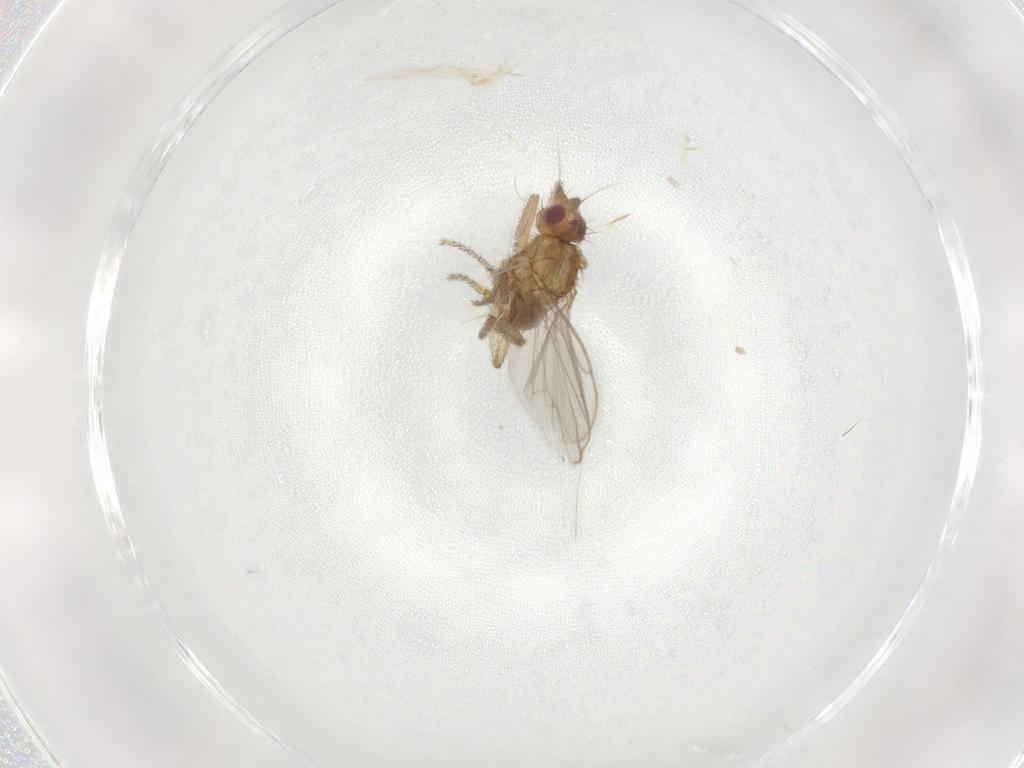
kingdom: Animalia
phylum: Arthropoda
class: Insecta
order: Diptera
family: Sphaeroceridae
